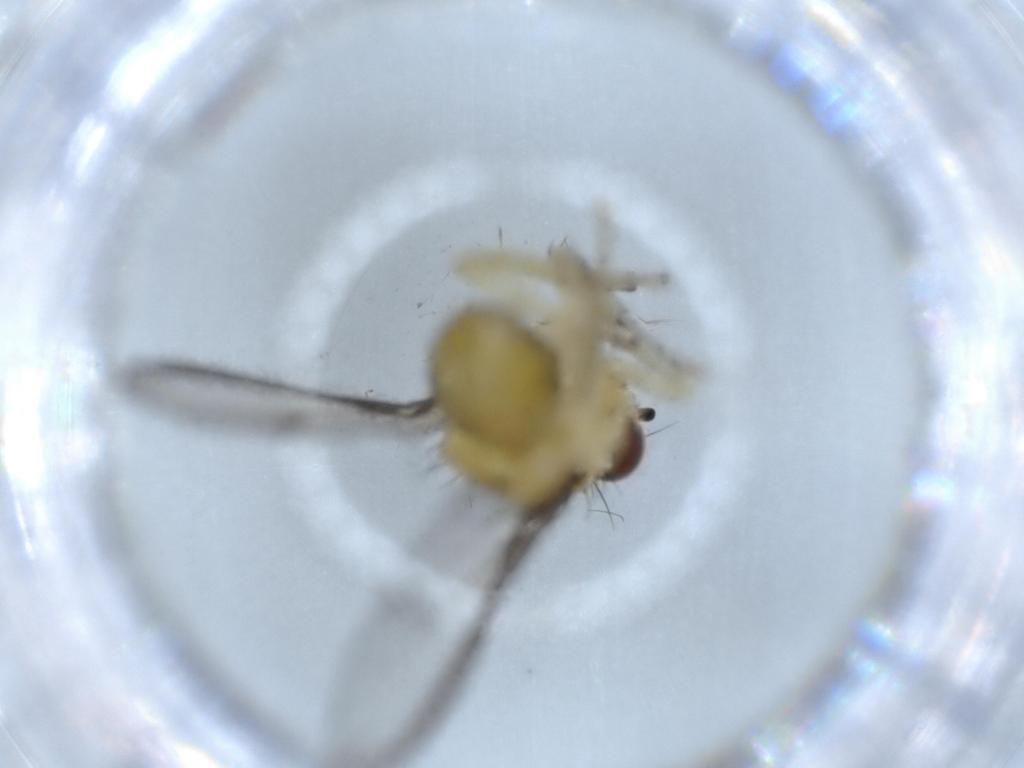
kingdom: Animalia
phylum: Arthropoda
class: Insecta
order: Diptera
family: Lauxaniidae
